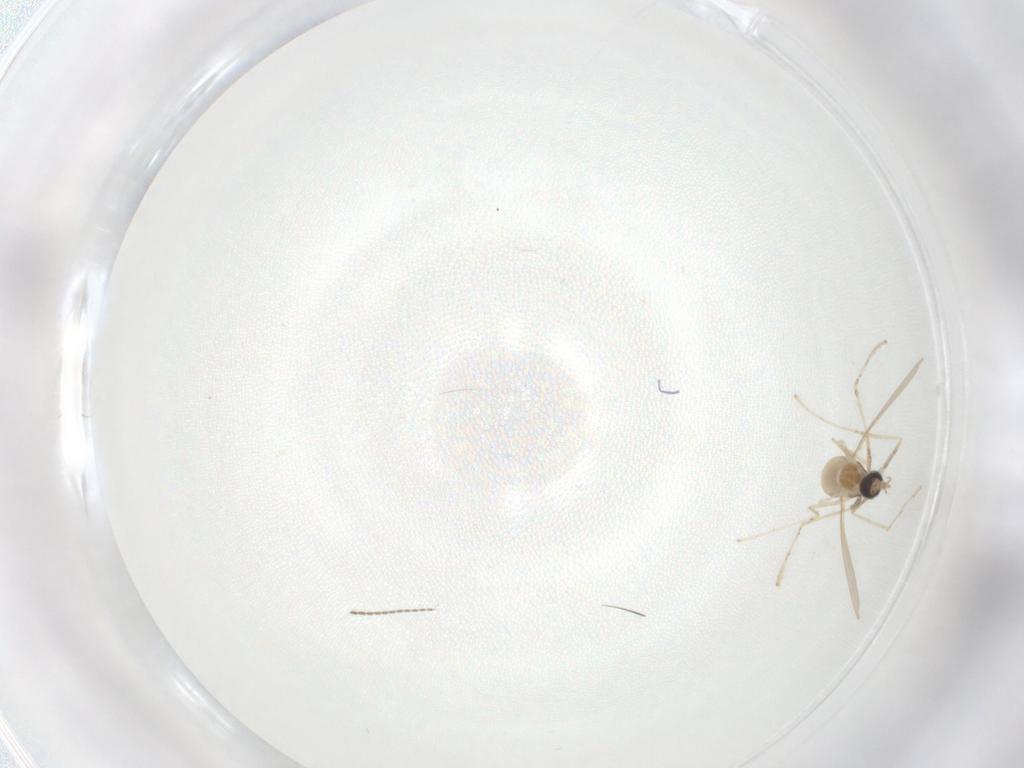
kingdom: Animalia
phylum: Arthropoda
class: Insecta
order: Diptera
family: Cecidomyiidae
